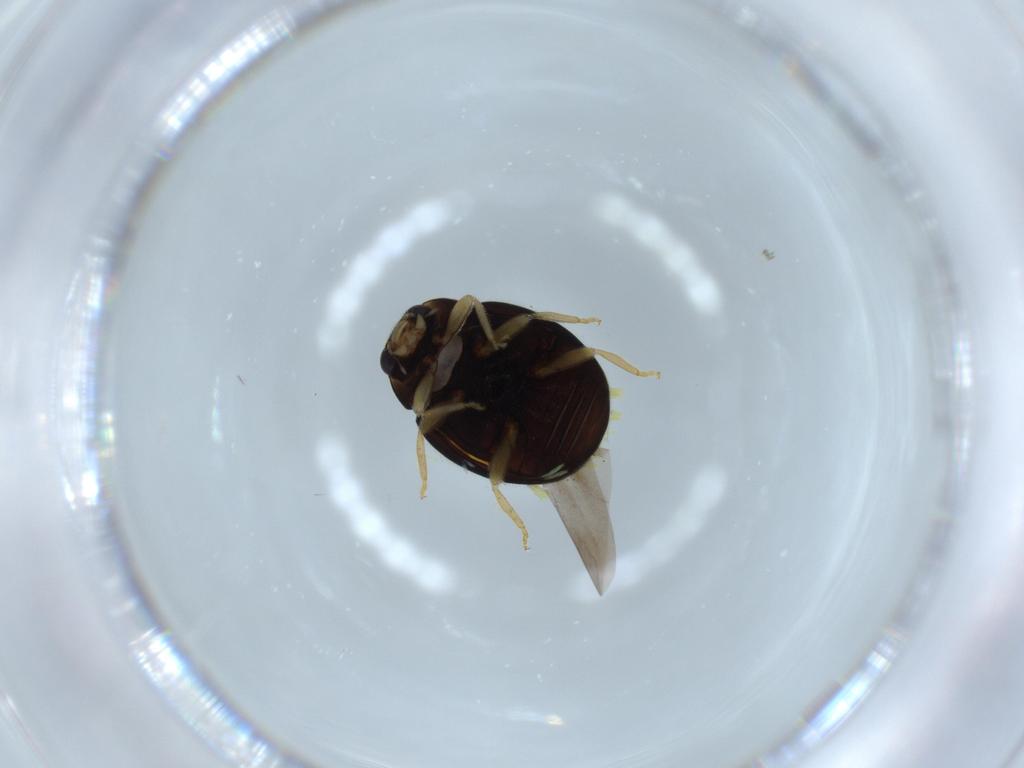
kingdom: Animalia
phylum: Arthropoda
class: Insecta
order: Coleoptera
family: Coccinellidae
